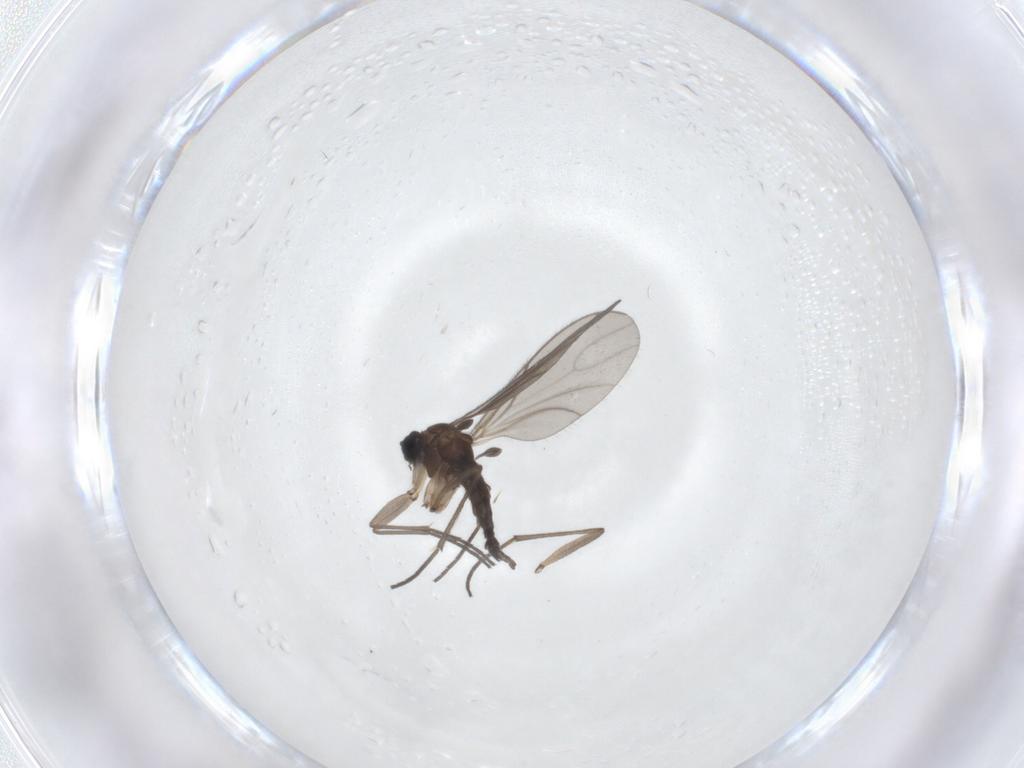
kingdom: Animalia
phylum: Arthropoda
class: Insecta
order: Diptera
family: Sciaridae
